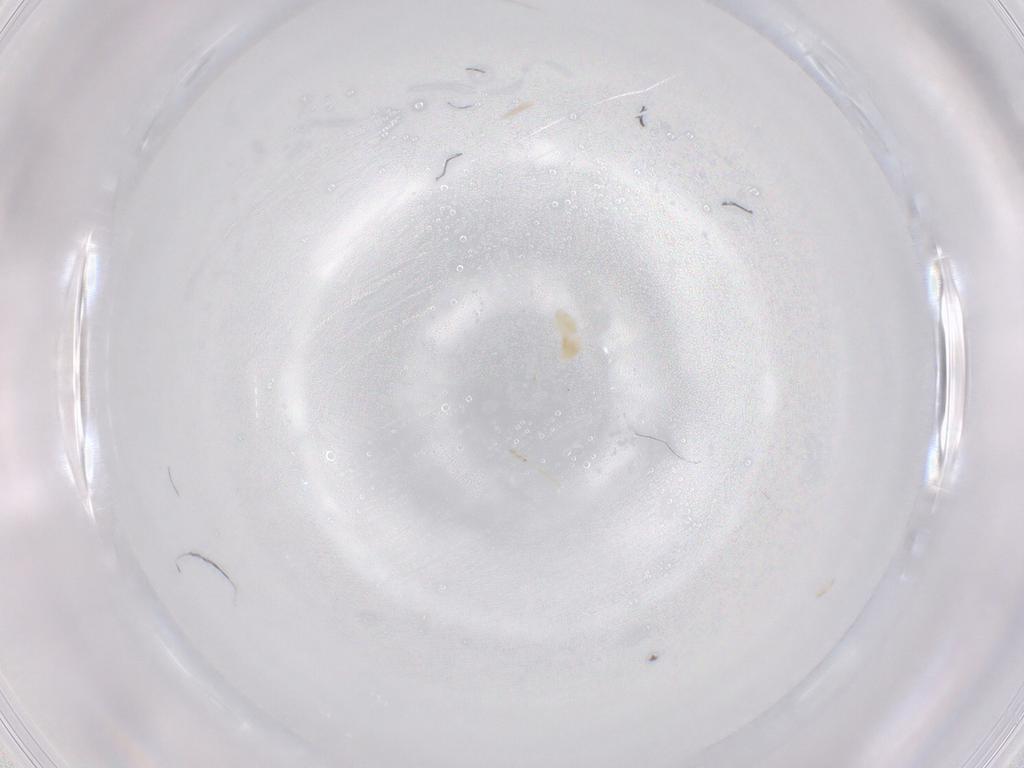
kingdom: Animalia
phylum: Arthropoda
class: Arachnida
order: Trombidiformes
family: Eupodidae
